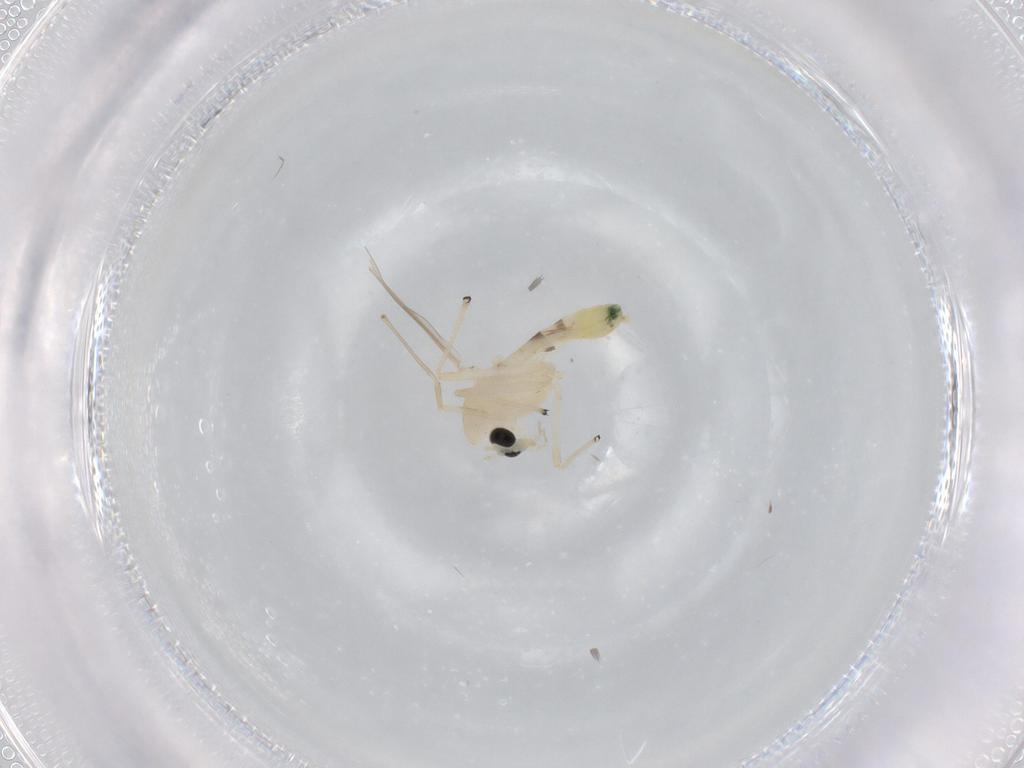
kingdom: Animalia
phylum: Arthropoda
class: Insecta
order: Diptera
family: Chironomidae
